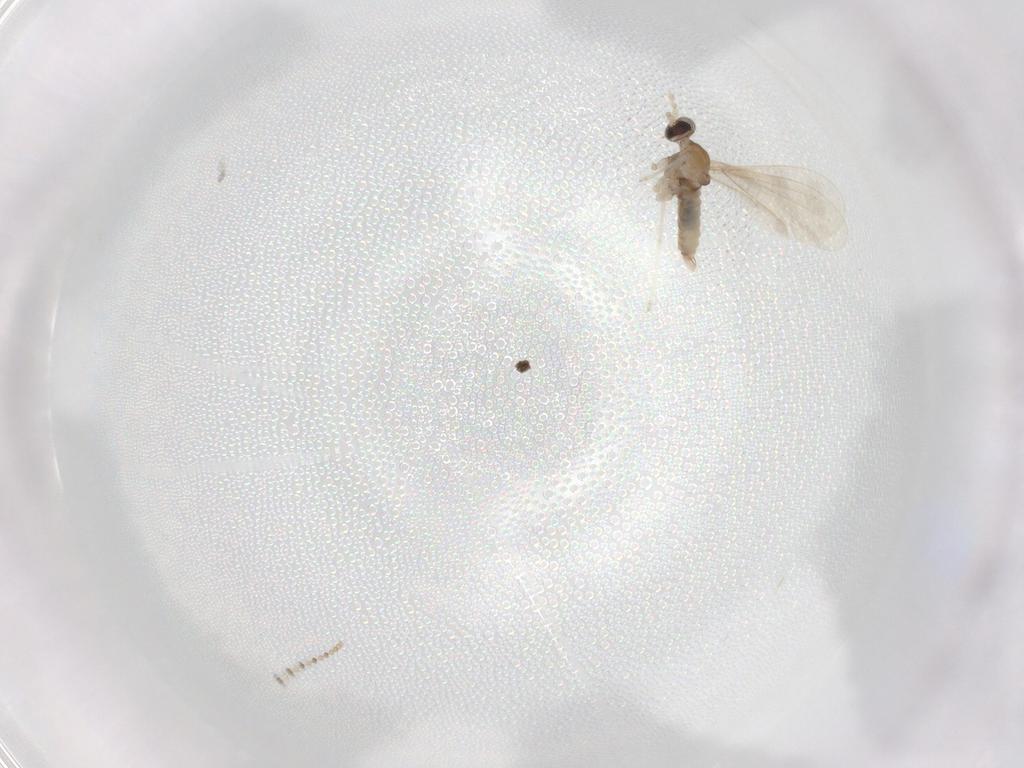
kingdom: Animalia
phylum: Arthropoda
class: Insecta
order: Diptera
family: Cecidomyiidae
